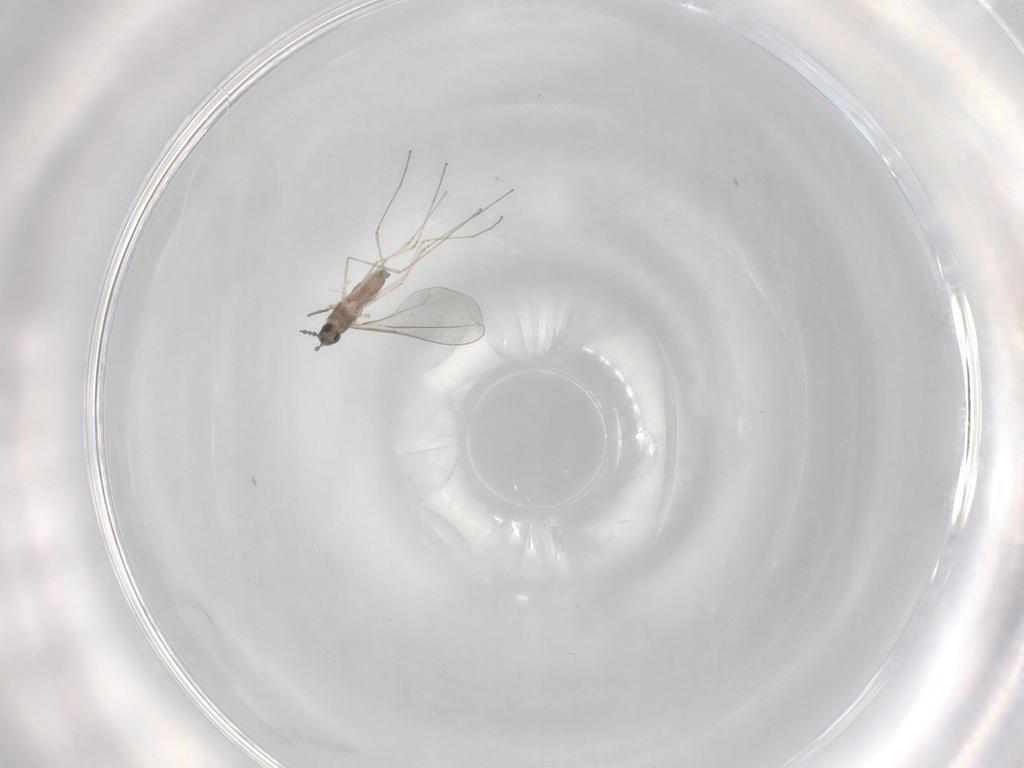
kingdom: Animalia
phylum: Arthropoda
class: Insecta
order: Diptera
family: Cecidomyiidae
